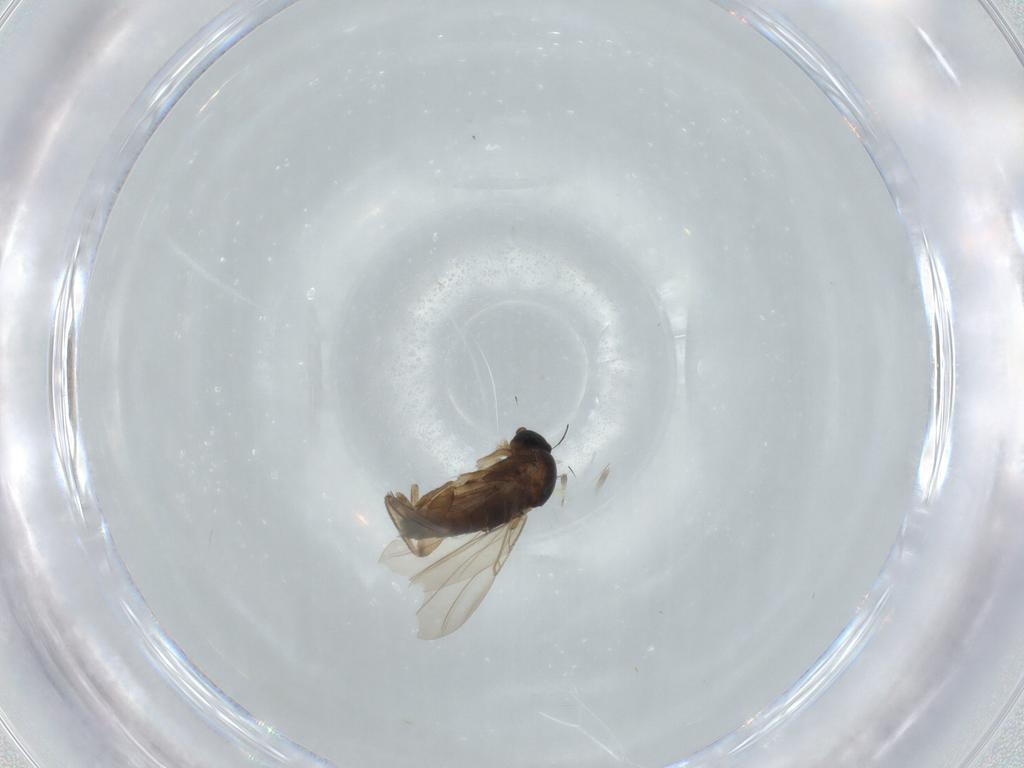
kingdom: Animalia
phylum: Arthropoda
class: Insecta
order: Diptera
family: Phoridae
